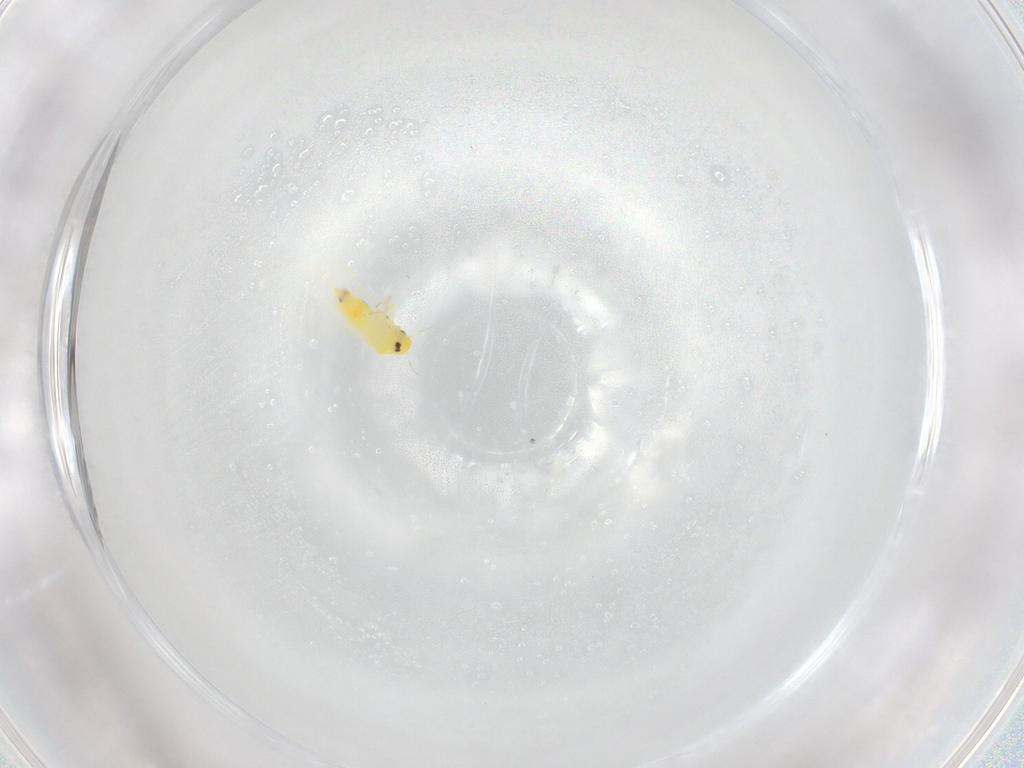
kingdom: Animalia
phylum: Arthropoda
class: Insecta
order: Hemiptera
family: Aleyrodidae
